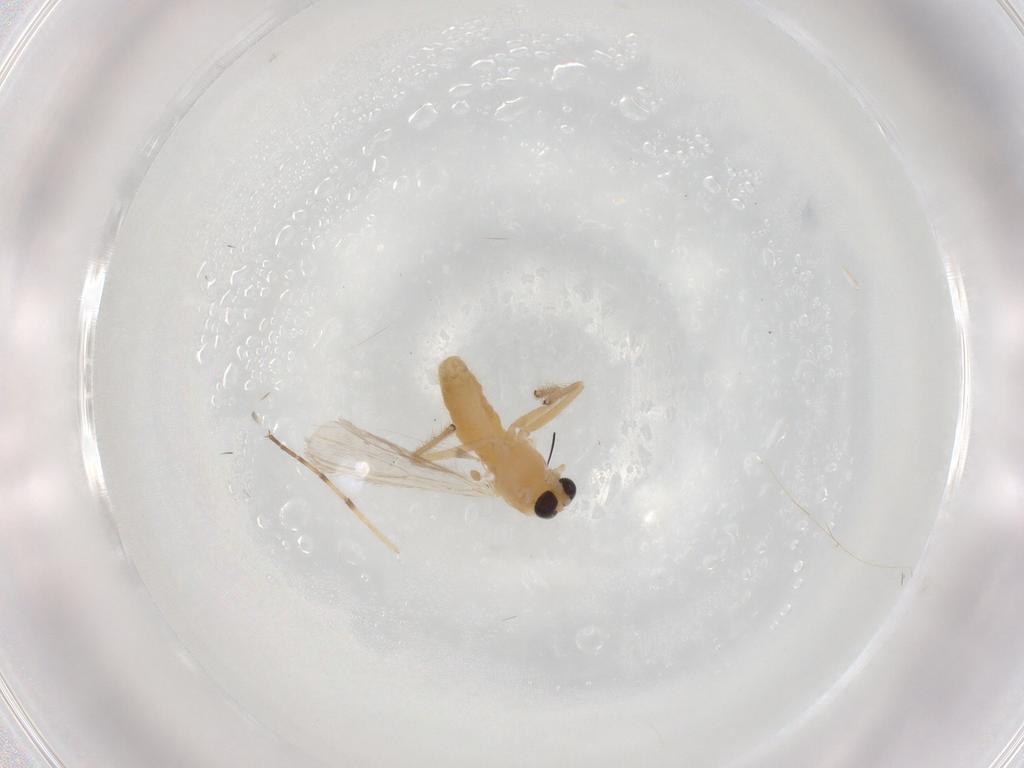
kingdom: Animalia
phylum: Arthropoda
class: Insecta
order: Diptera
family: Chironomidae
